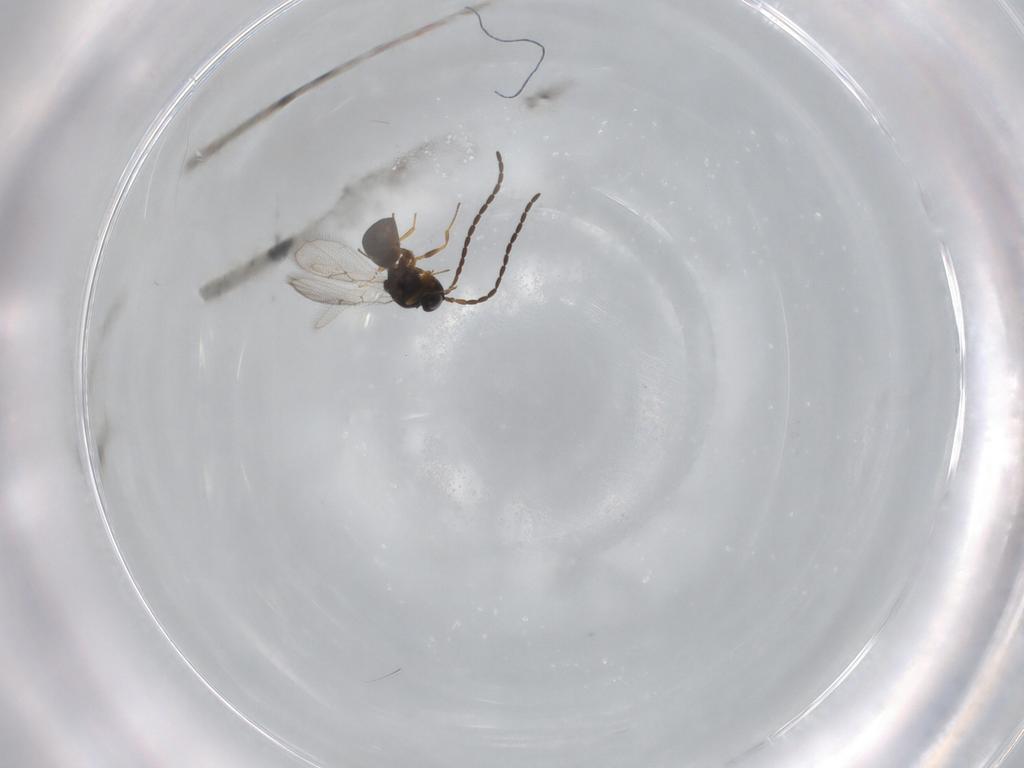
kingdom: Animalia
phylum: Arthropoda
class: Insecta
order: Hymenoptera
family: Figitidae
